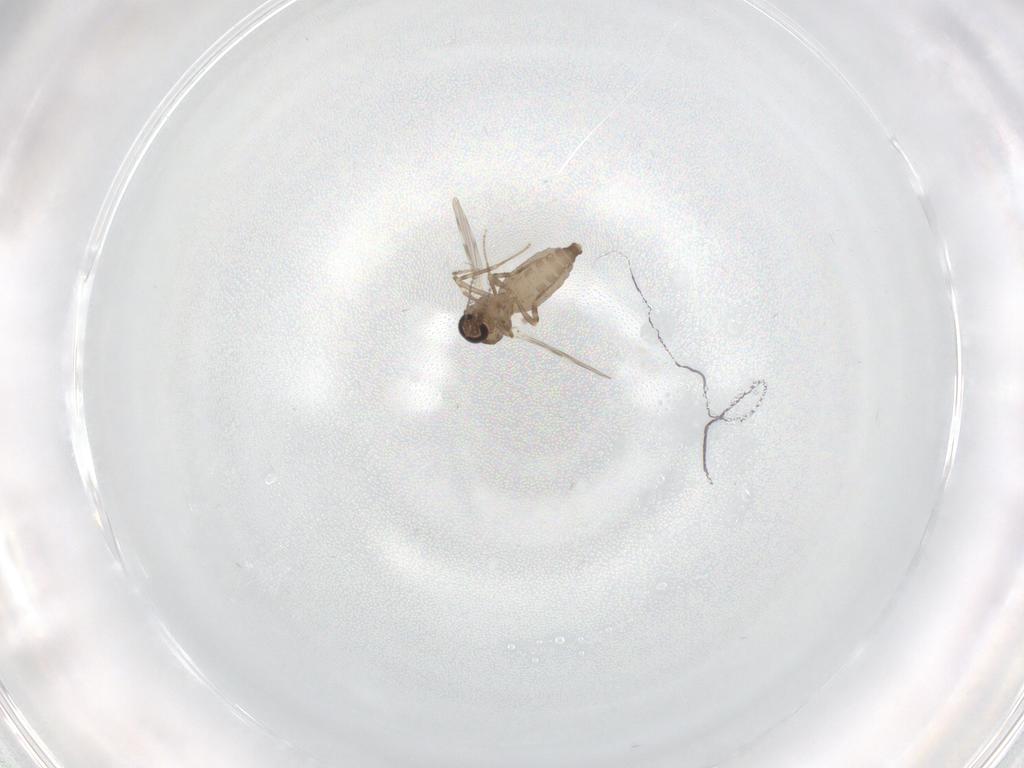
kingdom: Animalia
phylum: Arthropoda
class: Insecta
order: Diptera
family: Ceratopogonidae
